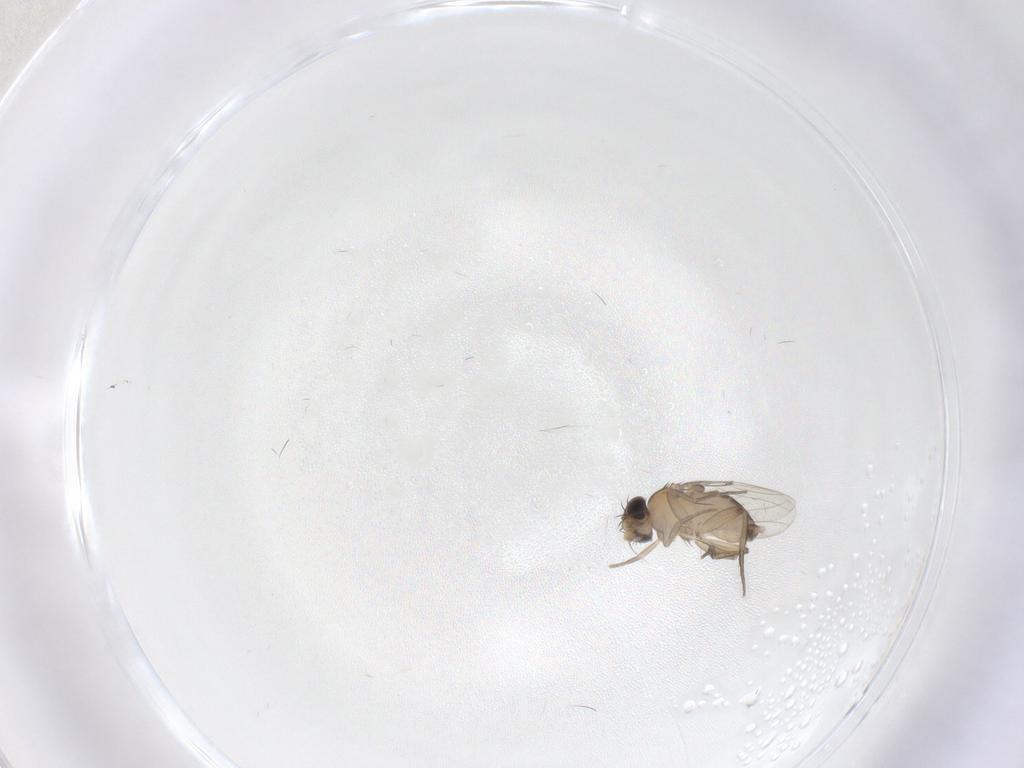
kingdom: Animalia
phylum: Arthropoda
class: Insecta
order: Diptera
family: Phoridae
